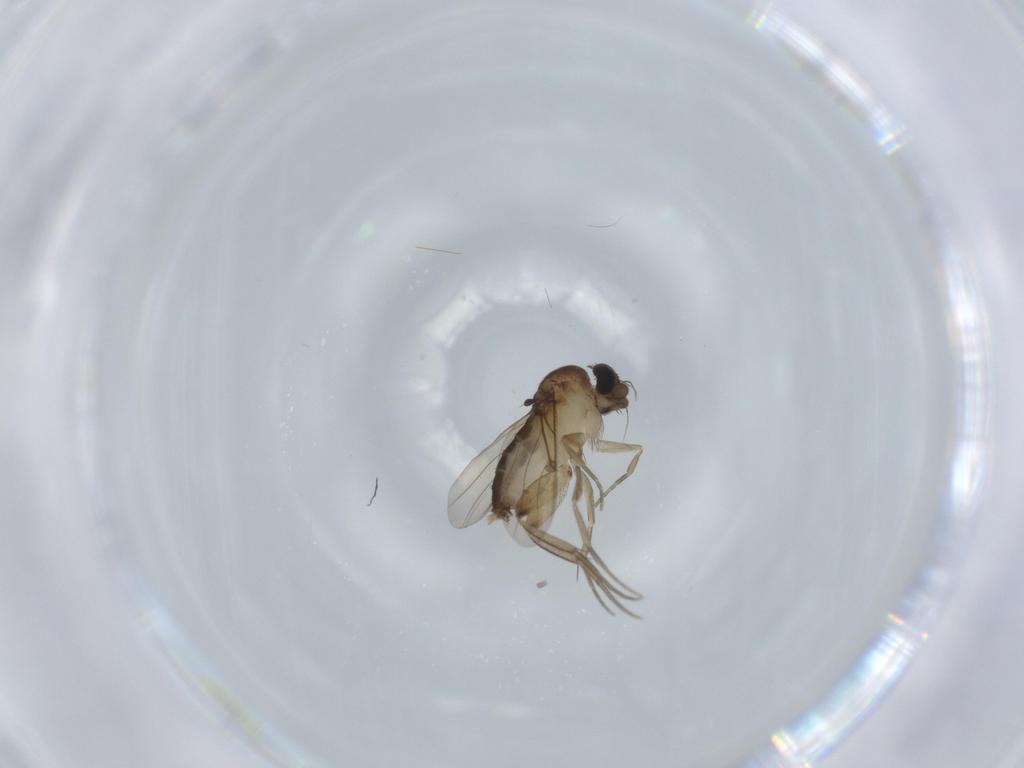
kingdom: Animalia
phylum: Arthropoda
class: Insecta
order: Diptera
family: Phoridae
